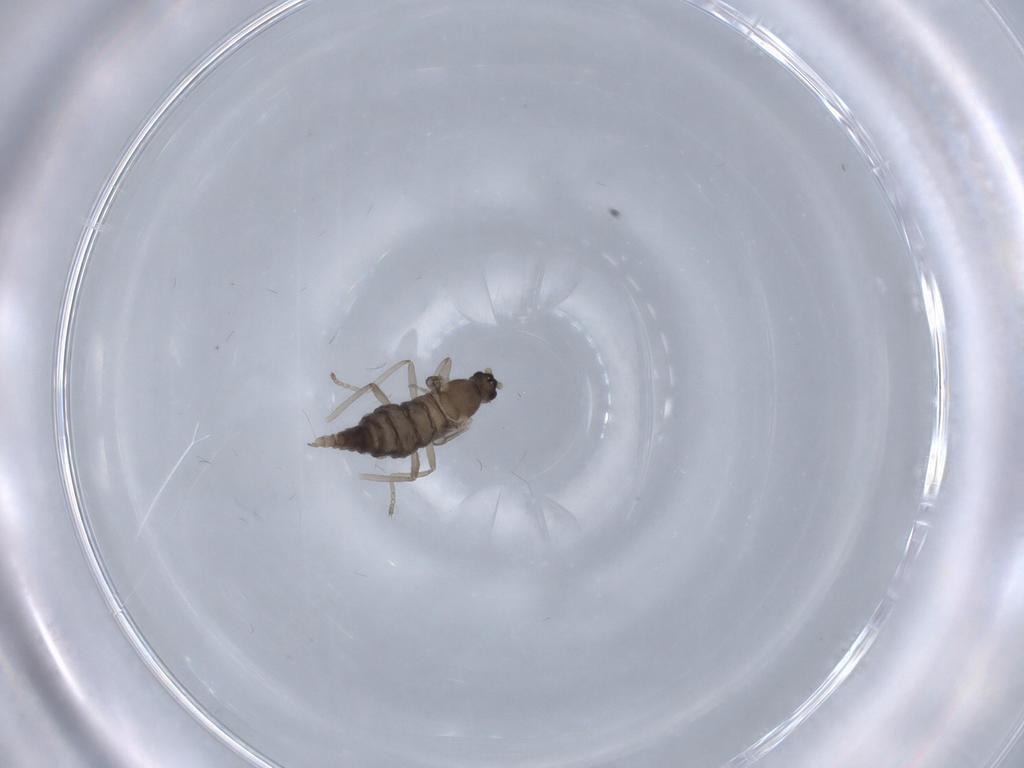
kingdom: Animalia
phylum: Arthropoda
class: Insecta
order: Diptera
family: Cecidomyiidae
